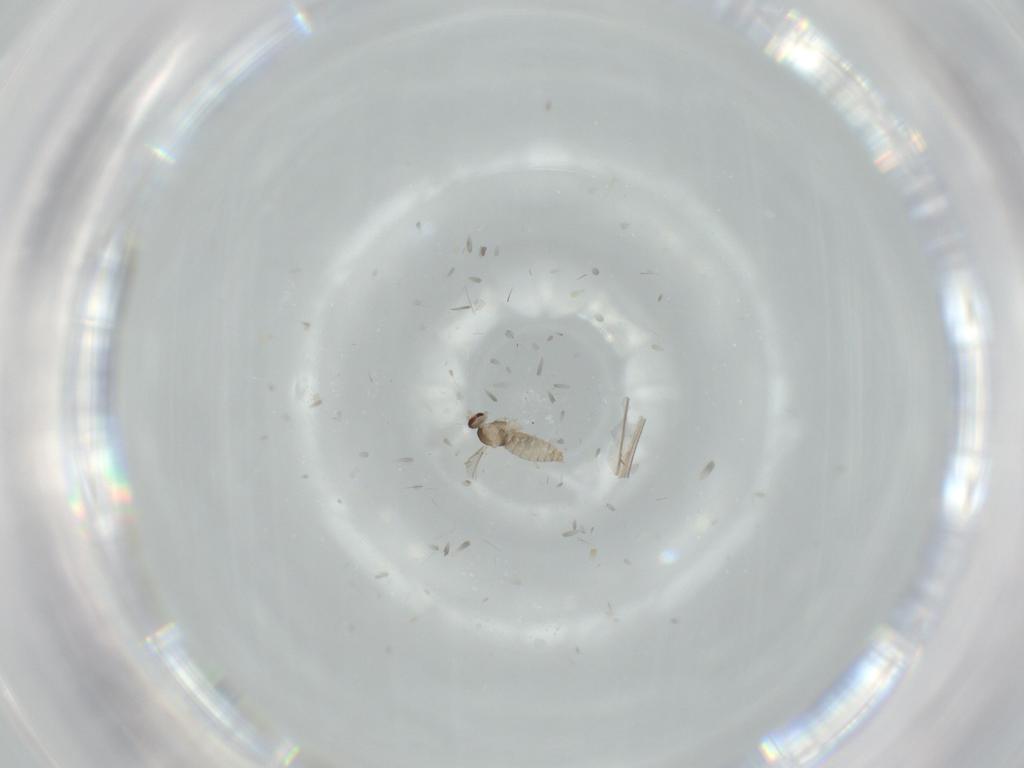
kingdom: Animalia
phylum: Arthropoda
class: Insecta
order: Diptera
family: Cecidomyiidae
